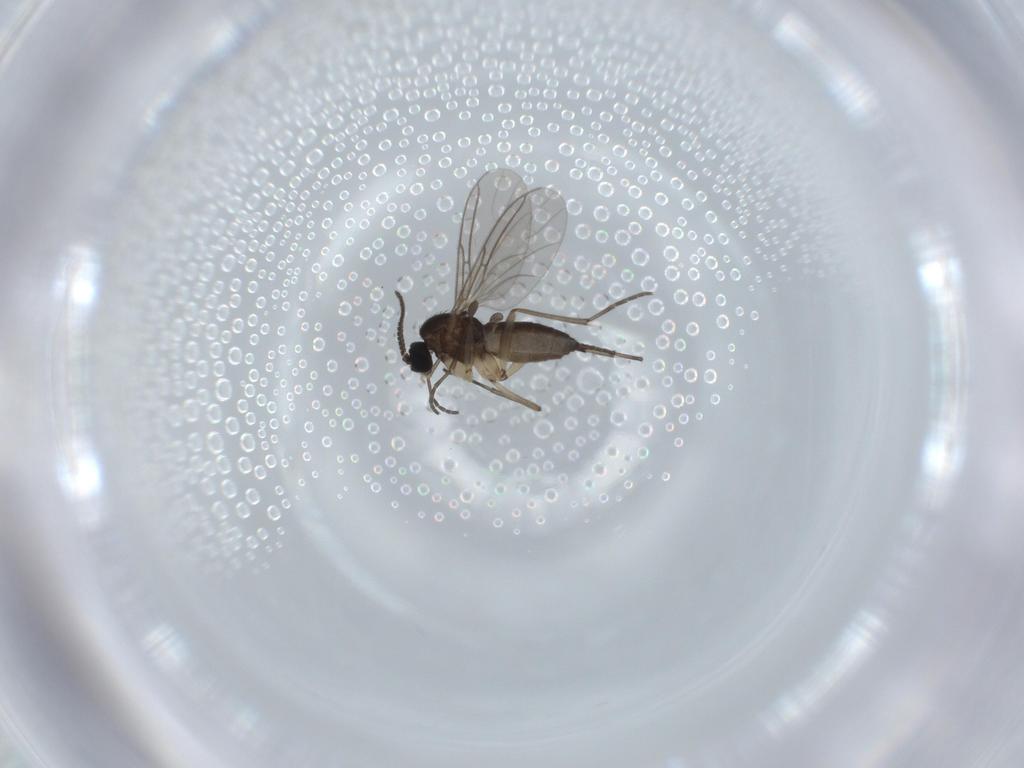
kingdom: Animalia
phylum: Arthropoda
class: Insecta
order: Diptera
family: Sciaridae
